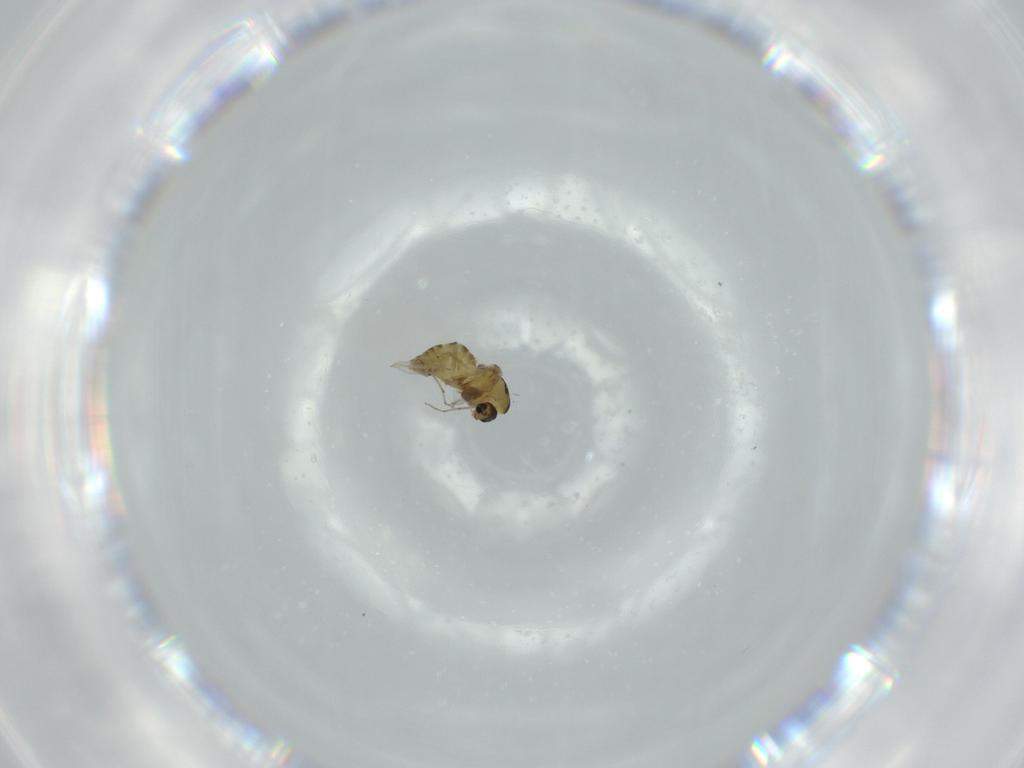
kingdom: Animalia
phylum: Arthropoda
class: Insecta
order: Diptera
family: Chironomidae
